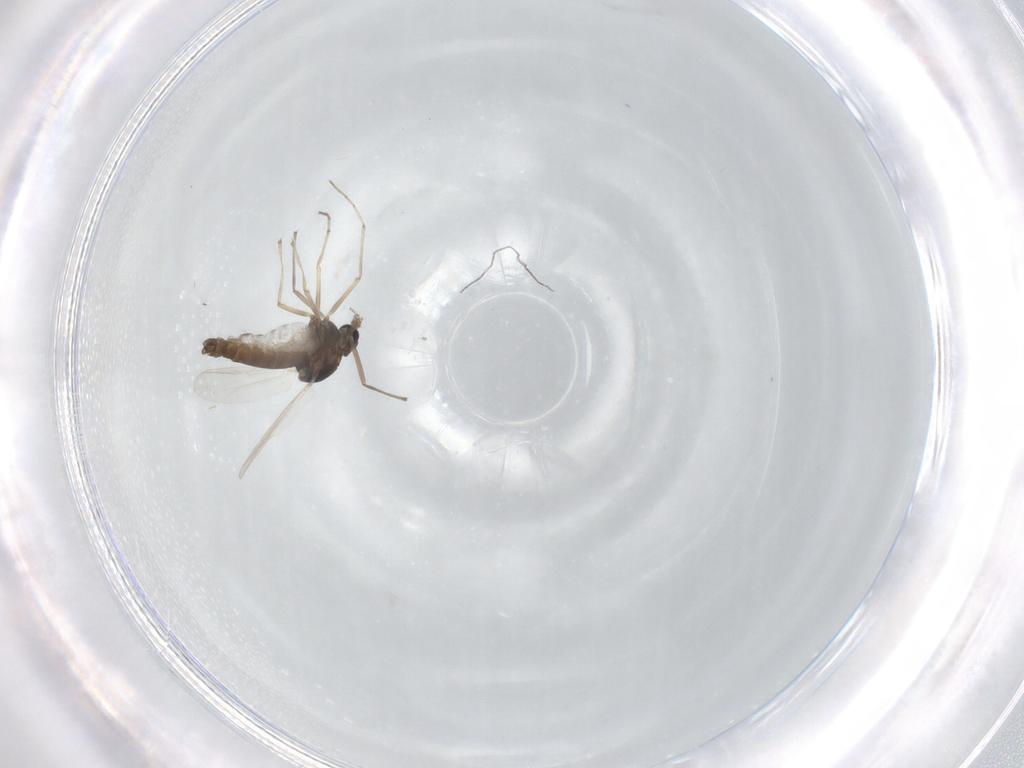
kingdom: Animalia
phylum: Arthropoda
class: Insecta
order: Diptera
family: Chironomidae
